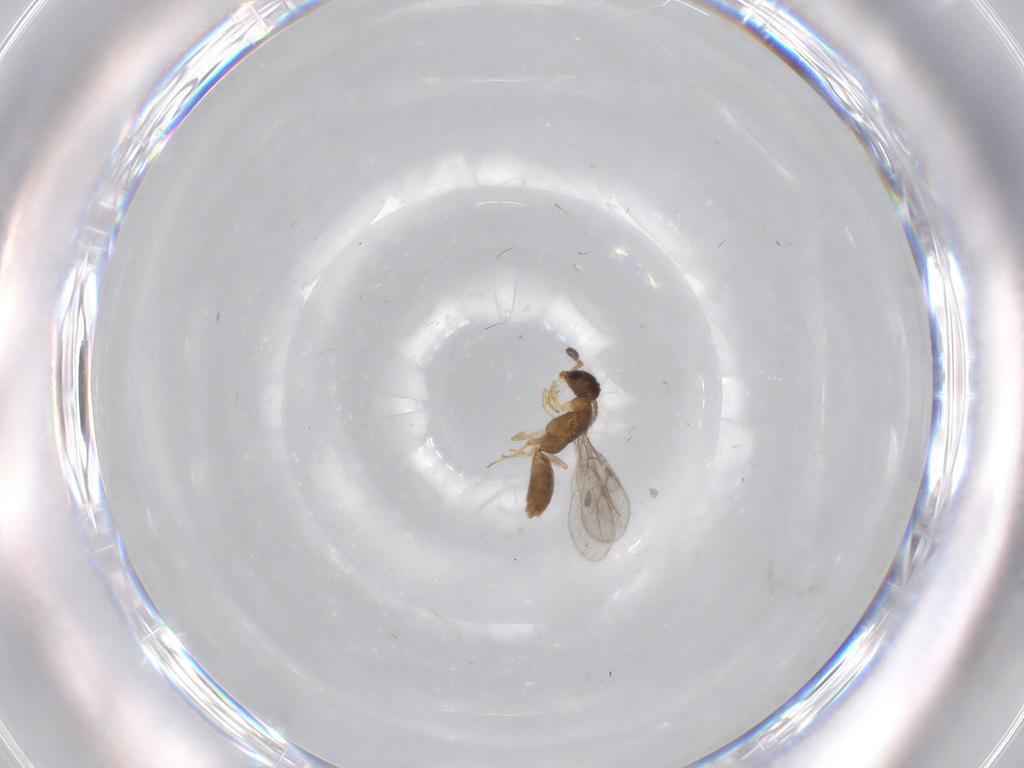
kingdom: Animalia
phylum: Arthropoda
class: Insecta
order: Hymenoptera
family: Bethylidae
